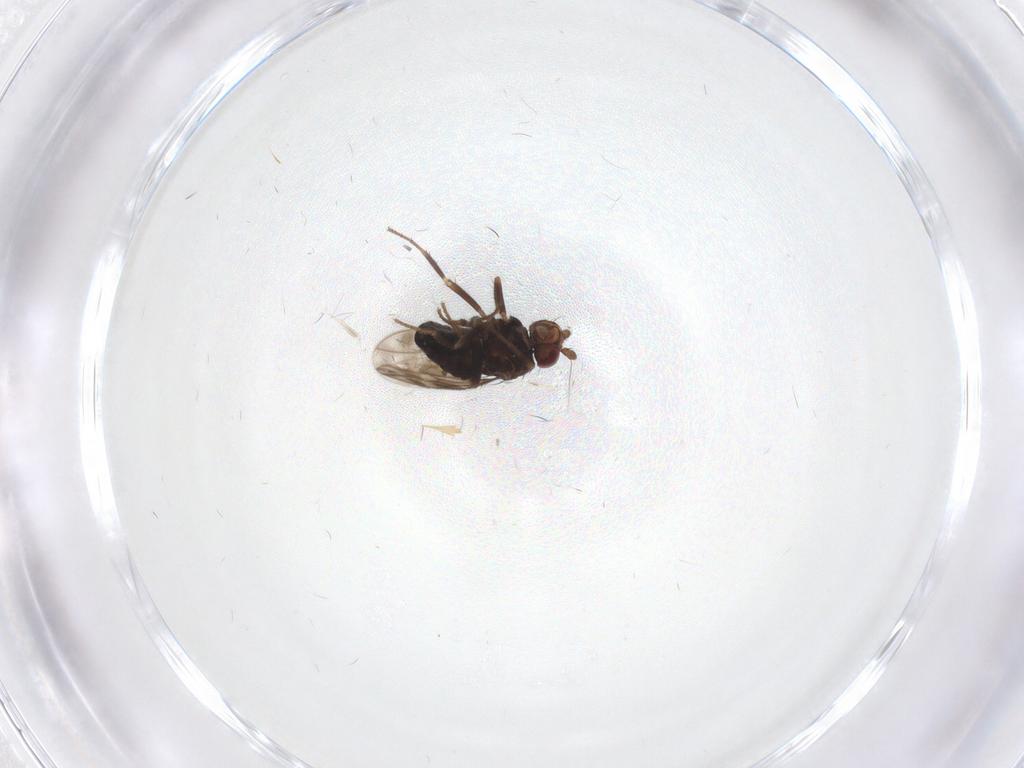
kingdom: Animalia
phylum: Arthropoda
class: Insecta
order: Diptera
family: Sphaeroceridae
